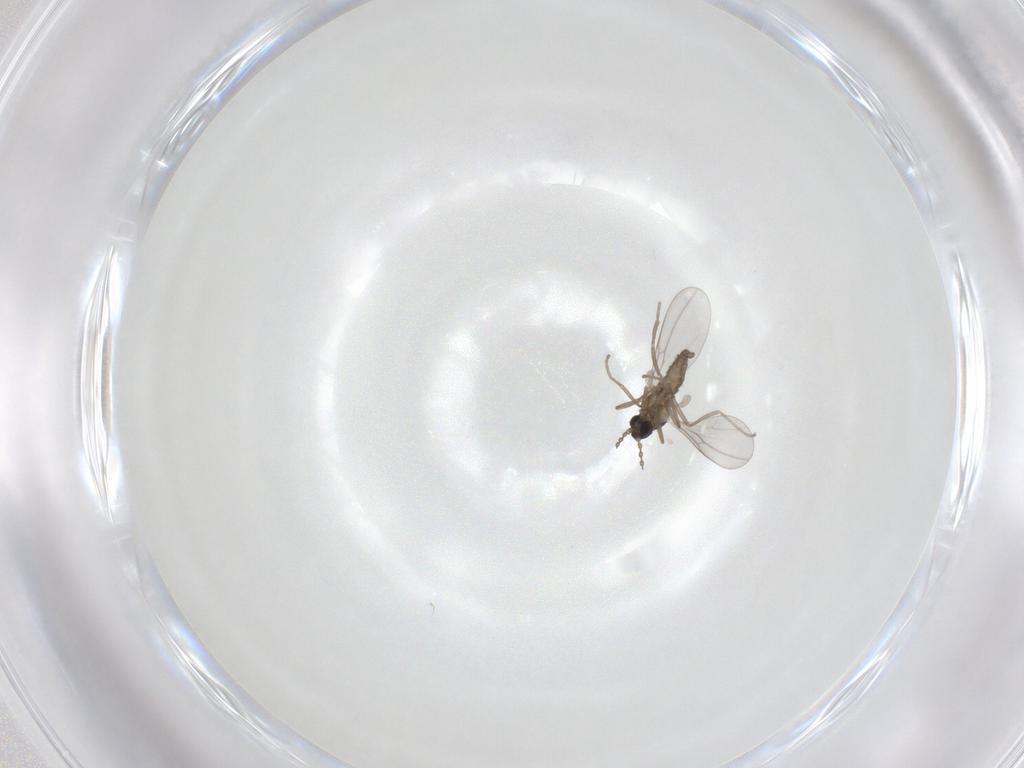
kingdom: Animalia
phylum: Arthropoda
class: Insecta
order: Diptera
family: Cecidomyiidae
